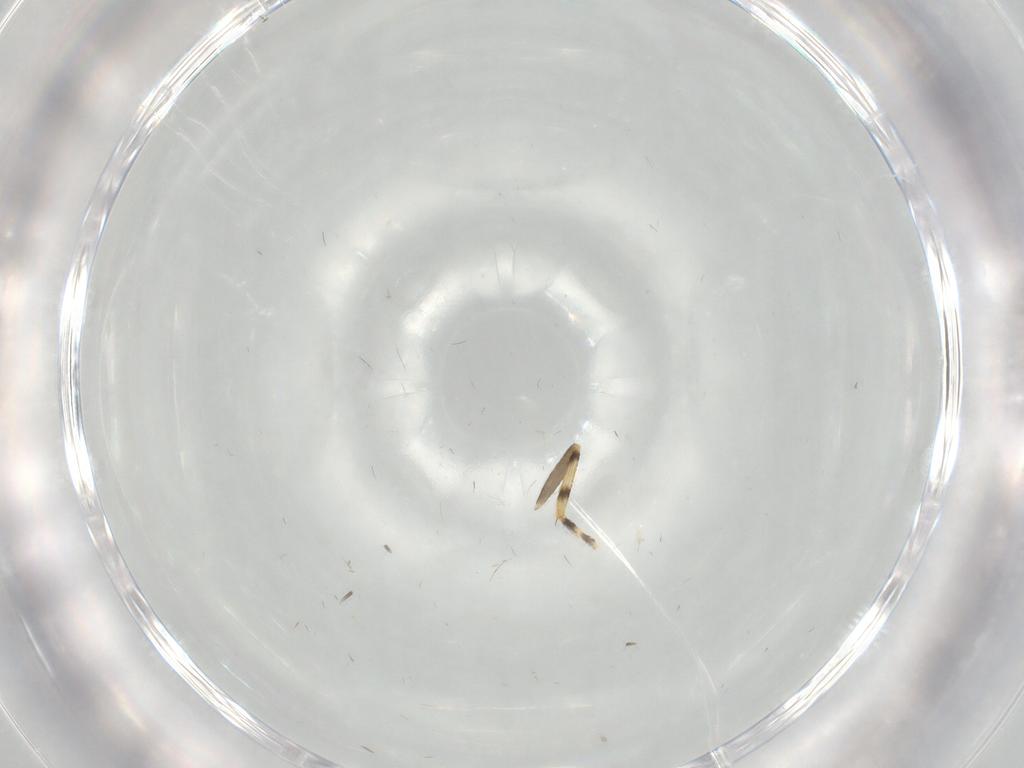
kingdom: Animalia
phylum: Arthropoda
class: Insecta
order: Diptera
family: Ceratopogonidae
